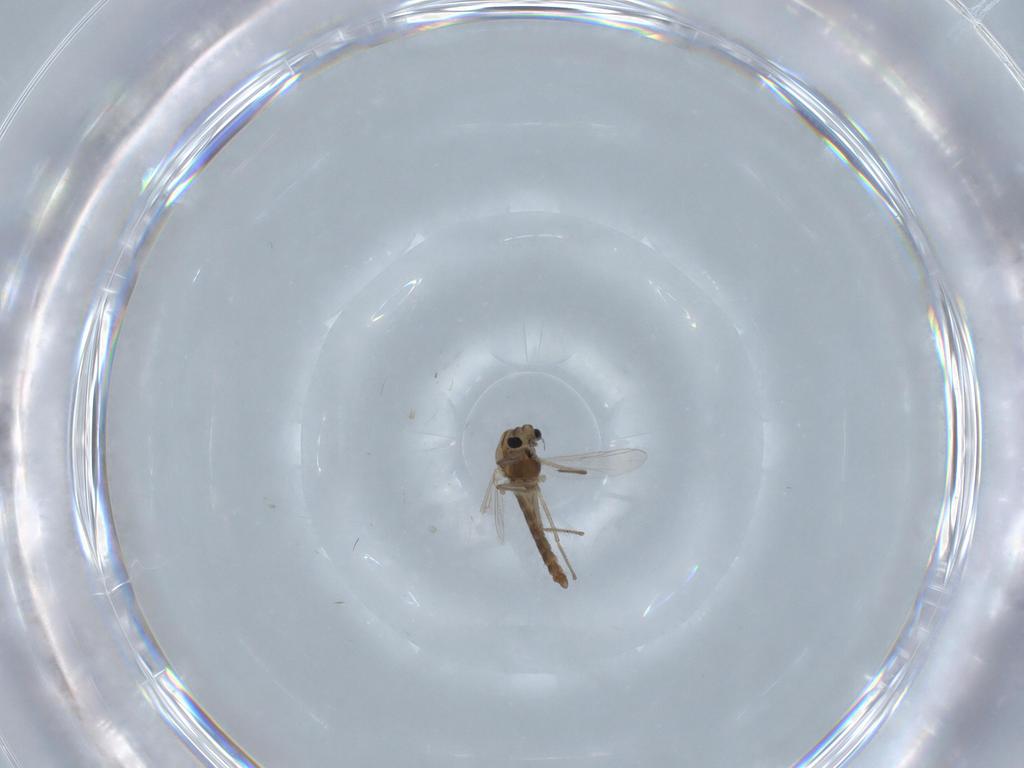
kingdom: Animalia
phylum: Arthropoda
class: Insecta
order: Diptera
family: Chironomidae
